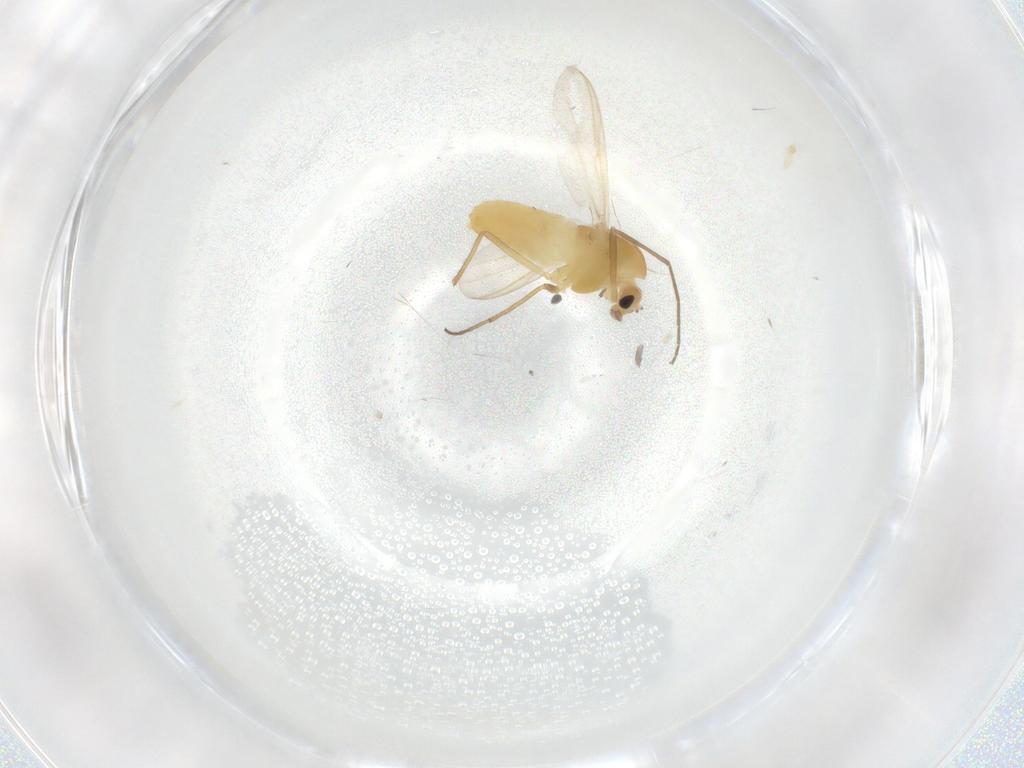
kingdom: Animalia
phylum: Arthropoda
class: Insecta
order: Diptera
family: Chironomidae
